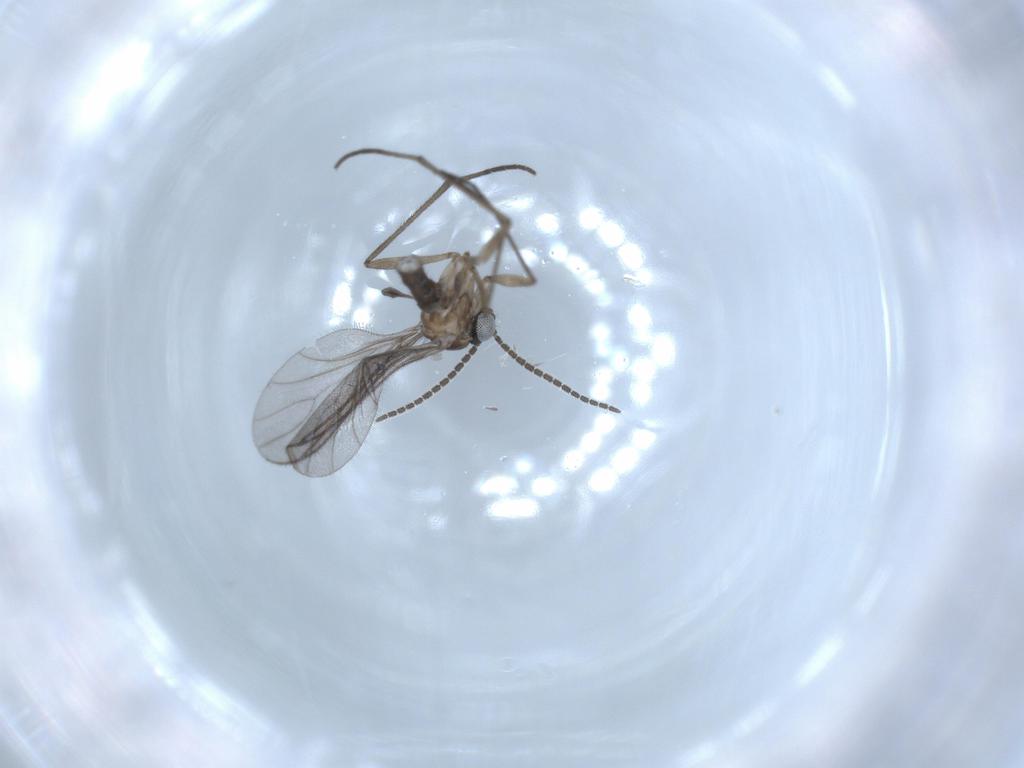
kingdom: Animalia
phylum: Arthropoda
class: Insecta
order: Diptera
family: Sciaridae
